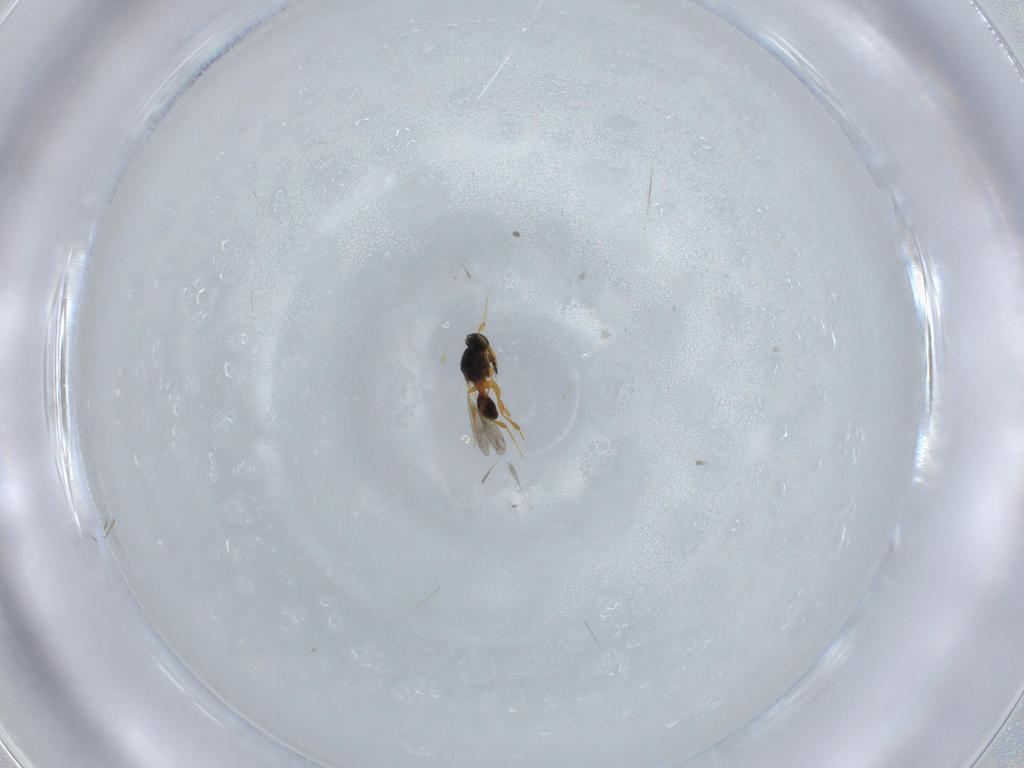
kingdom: Animalia
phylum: Arthropoda
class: Insecta
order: Hymenoptera
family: Platygastridae
